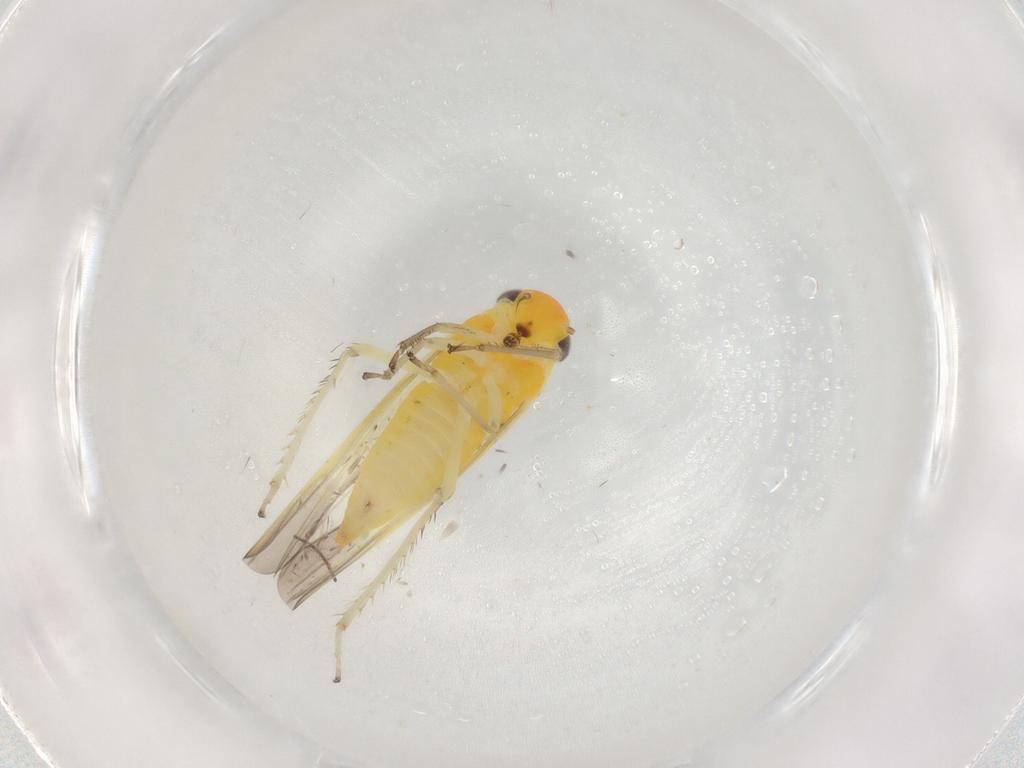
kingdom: Animalia
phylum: Arthropoda
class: Insecta
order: Hemiptera
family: Cicadellidae
